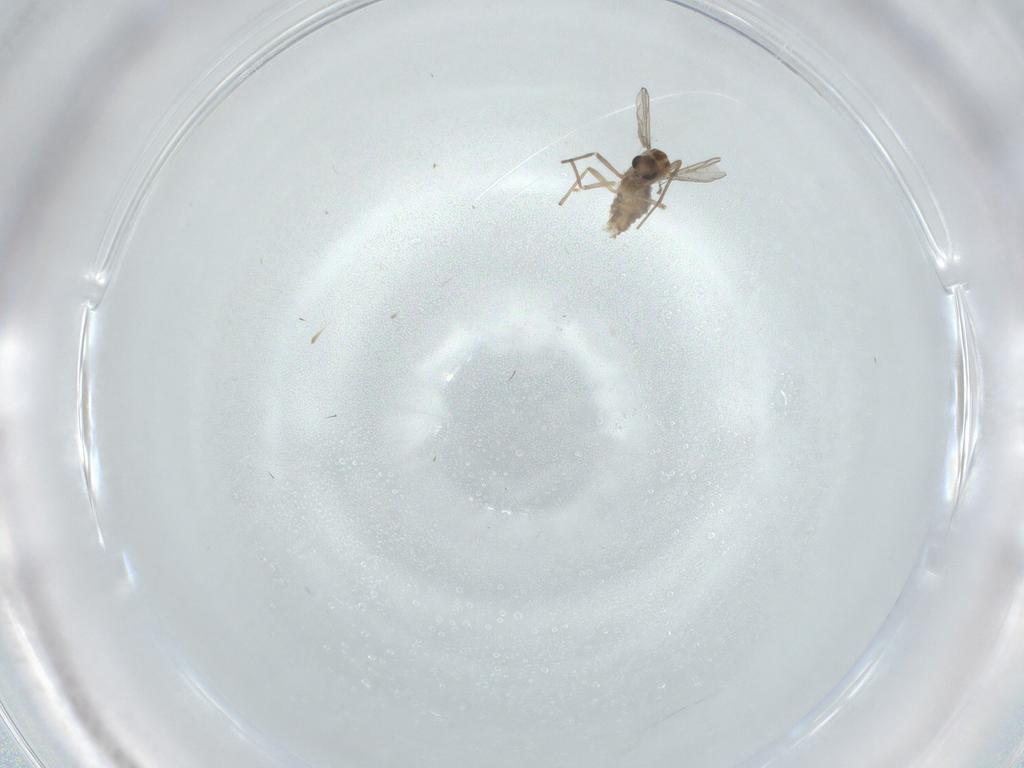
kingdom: Animalia
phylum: Arthropoda
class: Insecta
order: Diptera
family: Chironomidae
